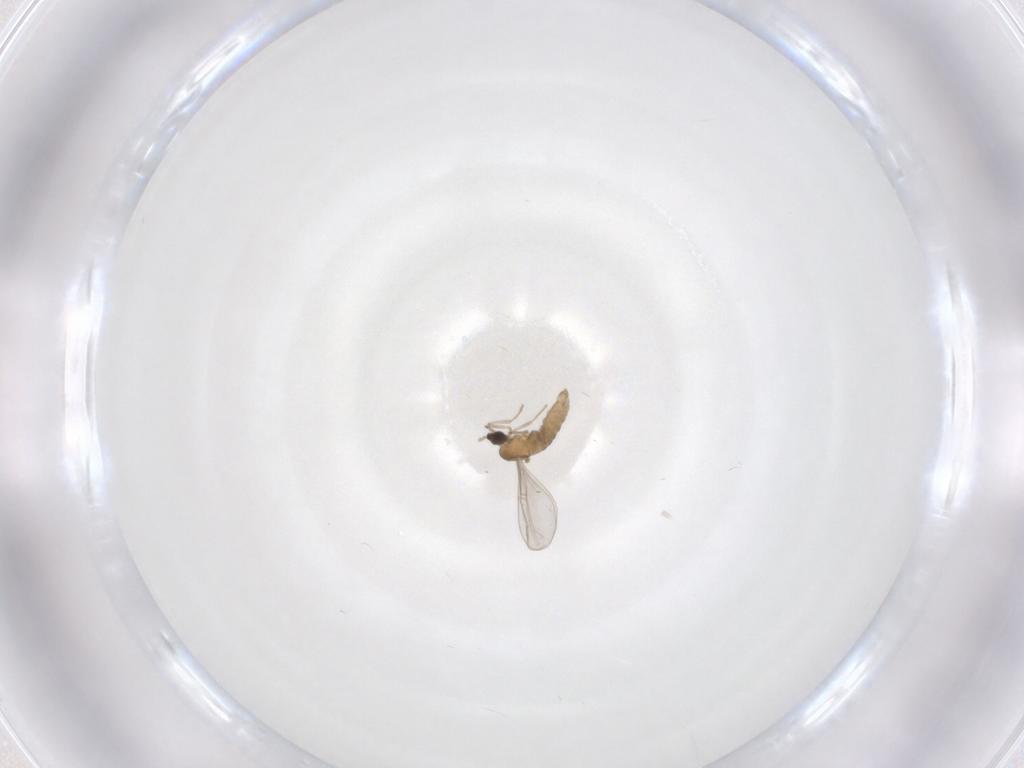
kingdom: Animalia
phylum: Arthropoda
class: Insecta
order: Diptera
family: Cecidomyiidae
